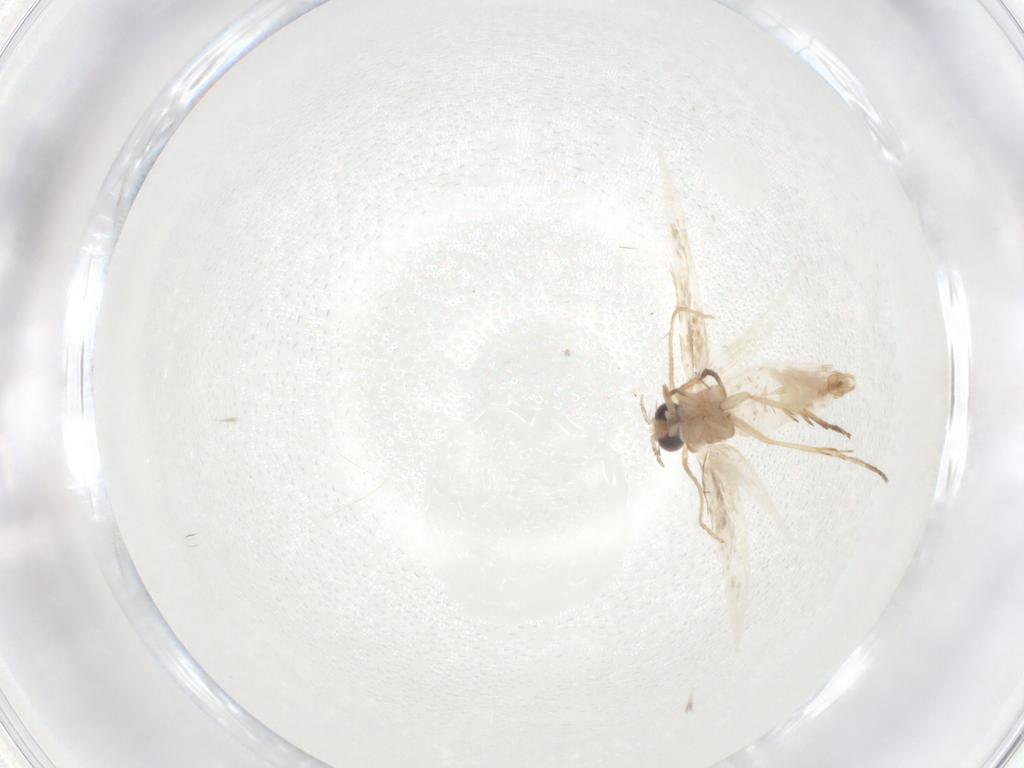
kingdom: Animalia
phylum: Arthropoda
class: Insecta
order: Lepidoptera
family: Nepticulidae
